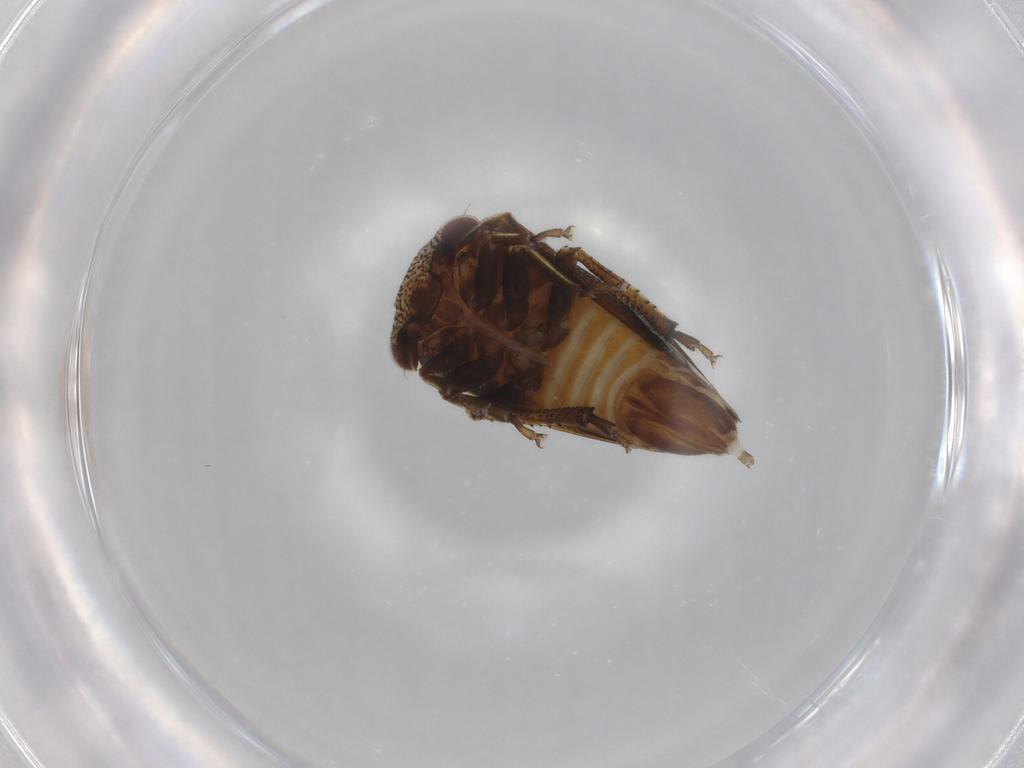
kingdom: Animalia
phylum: Arthropoda
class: Insecta
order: Hemiptera
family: Membracidae
